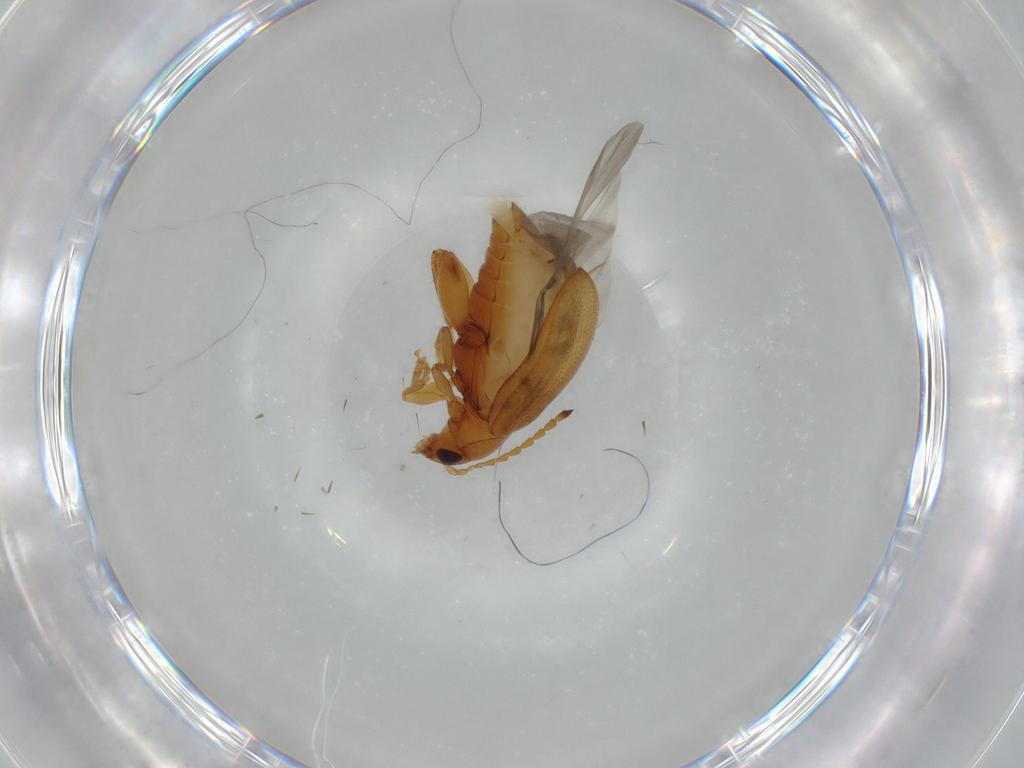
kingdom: Animalia
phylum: Arthropoda
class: Insecta
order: Coleoptera
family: Chrysomelidae
